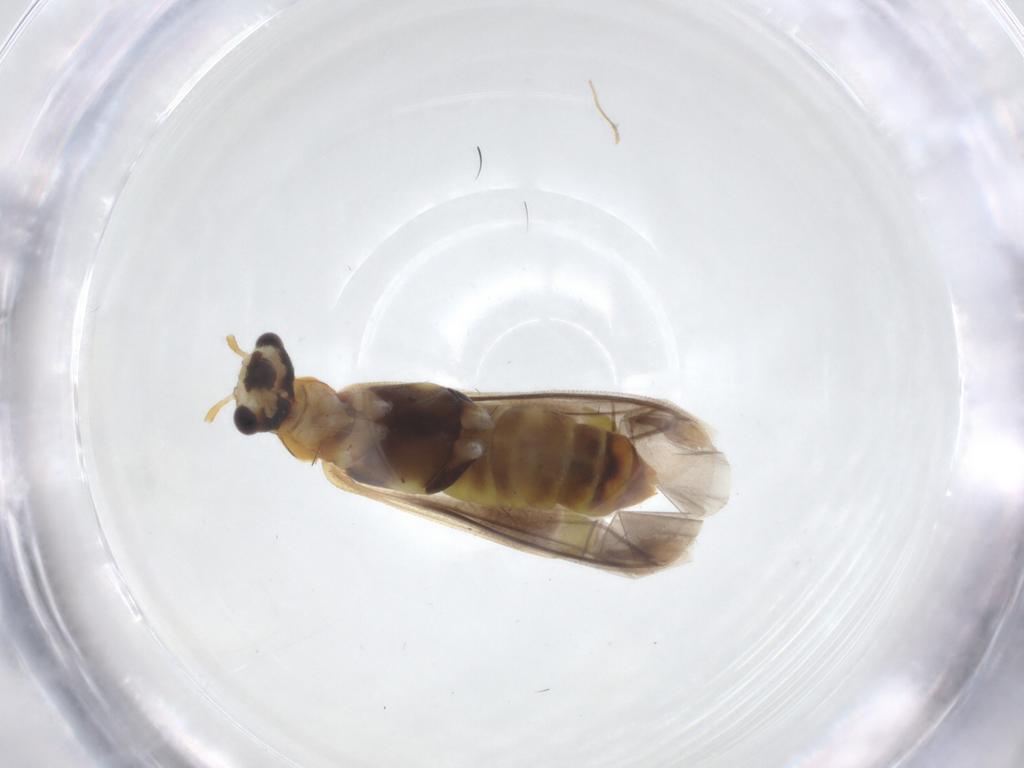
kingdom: Animalia
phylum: Arthropoda
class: Insecta
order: Coleoptera
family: Cantharidae
